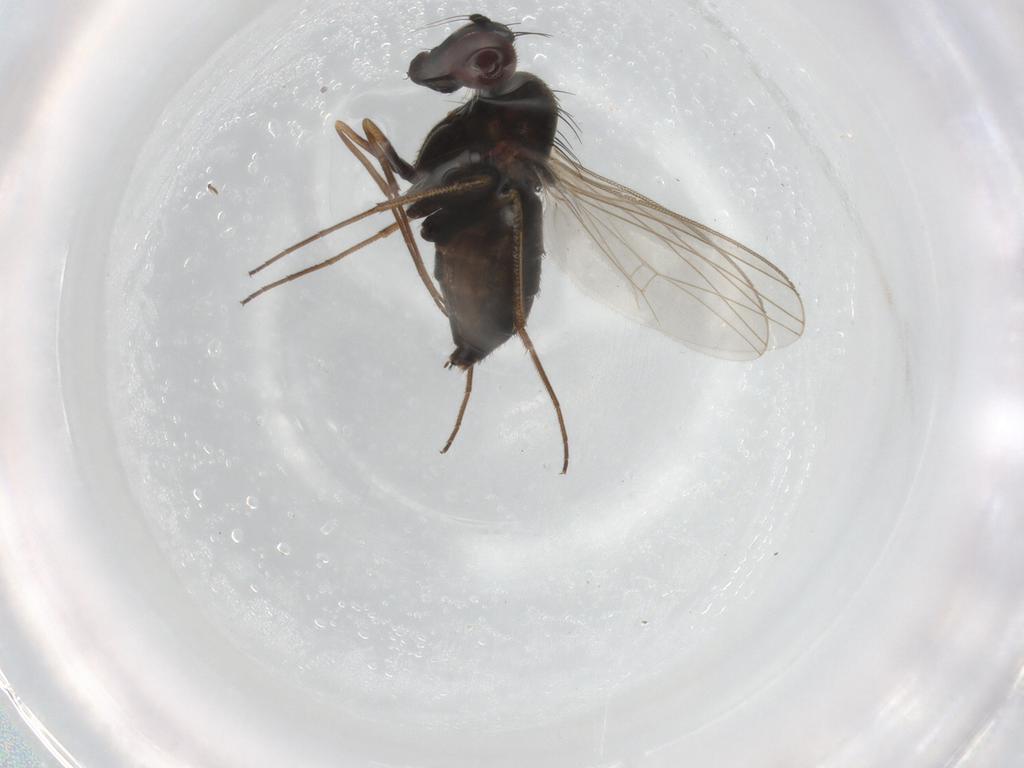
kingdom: Animalia
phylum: Arthropoda
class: Insecta
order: Diptera
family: Dolichopodidae
